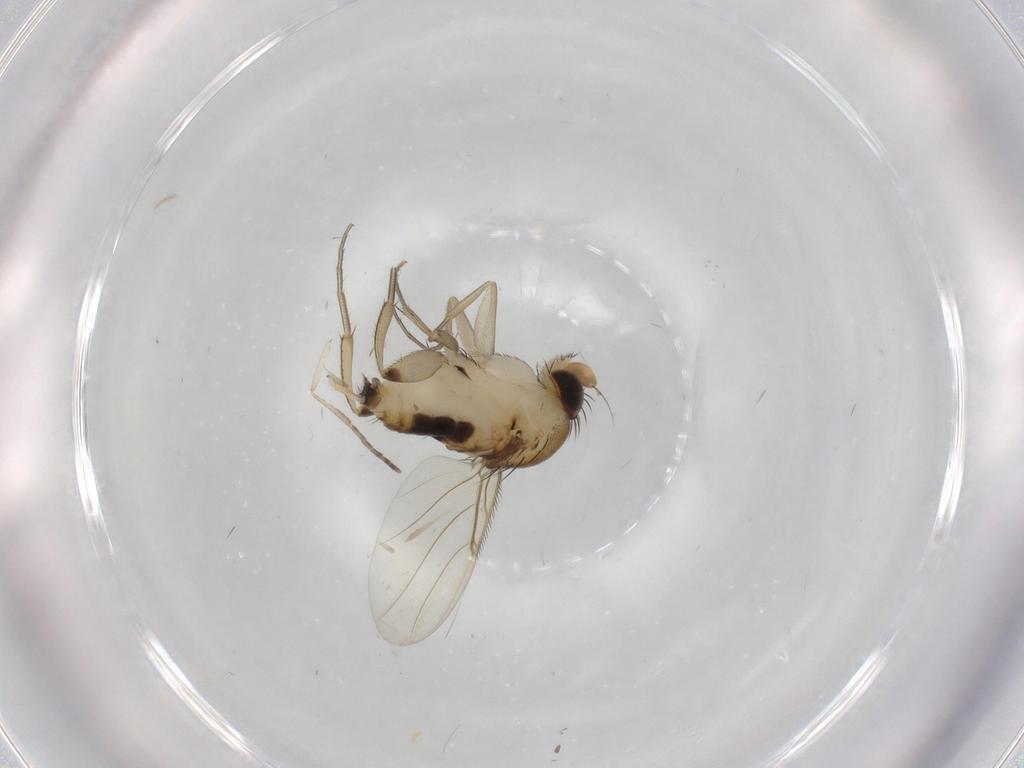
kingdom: Animalia
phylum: Arthropoda
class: Insecta
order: Diptera
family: Phoridae
